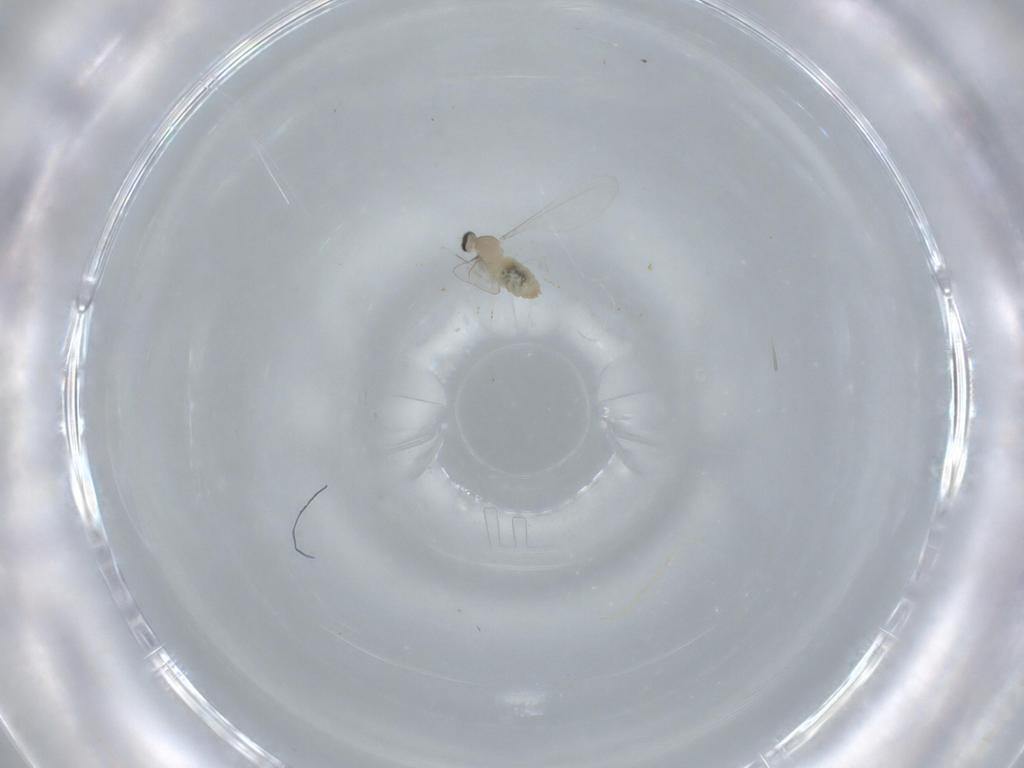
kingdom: Animalia
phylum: Arthropoda
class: Insecta
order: Diptera
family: Cecidomyiidae
